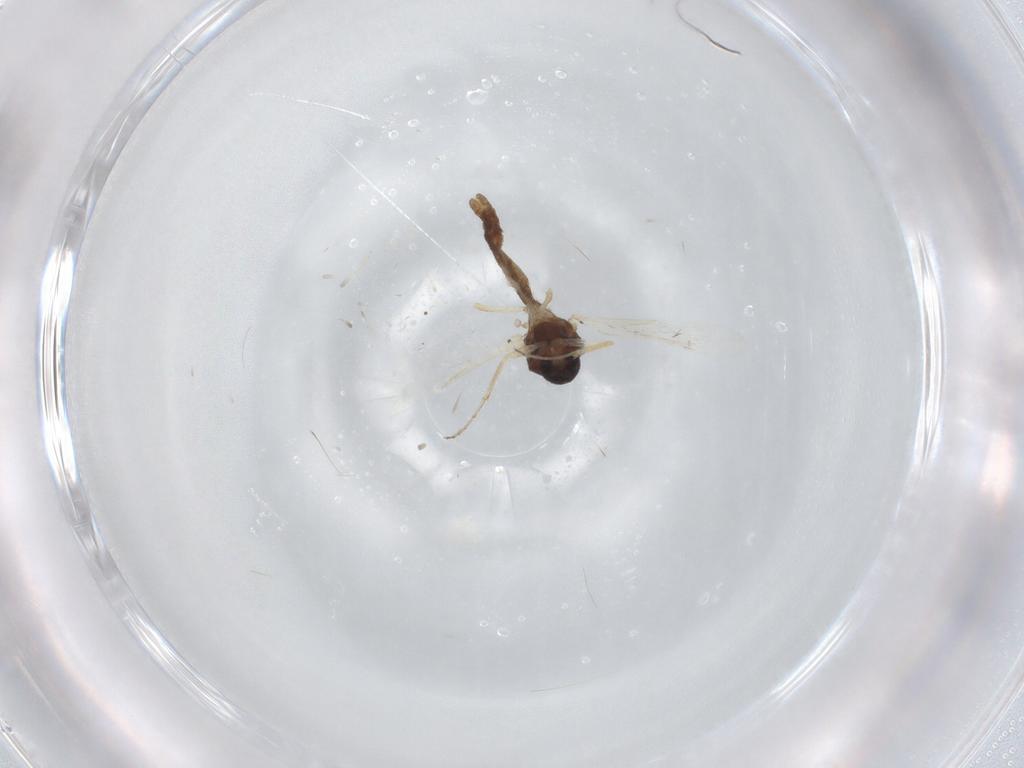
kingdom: Animalia
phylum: Arthropoda
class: Insecta
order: Diptera
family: Ceratopogonidae
